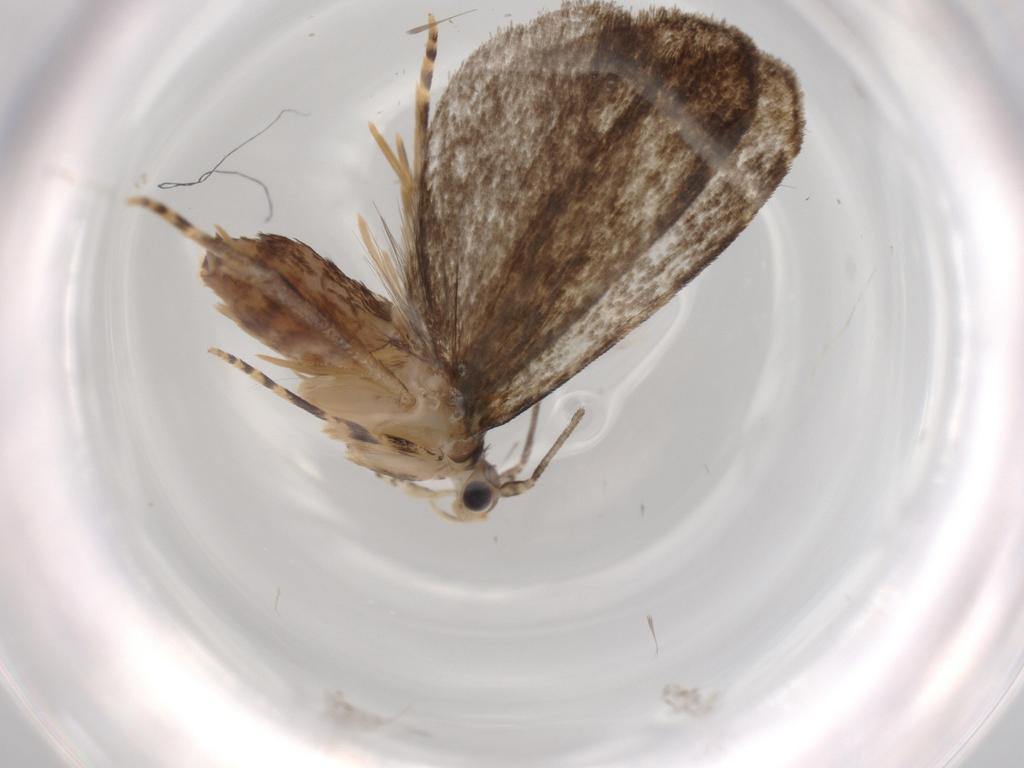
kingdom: Animalia
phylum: Arthropoda
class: Insecta
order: Lepidoptera
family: Tineidae
